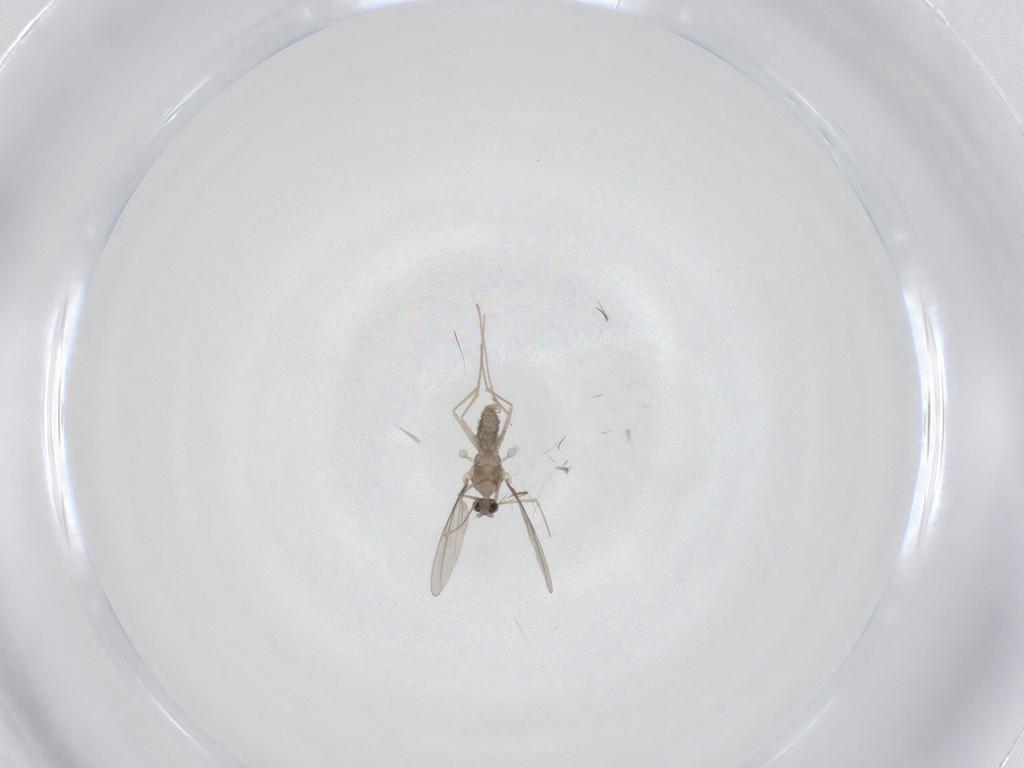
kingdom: Animalia
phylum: Arthropoda
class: Insecta
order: Diptera
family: Cecidomyiidae
